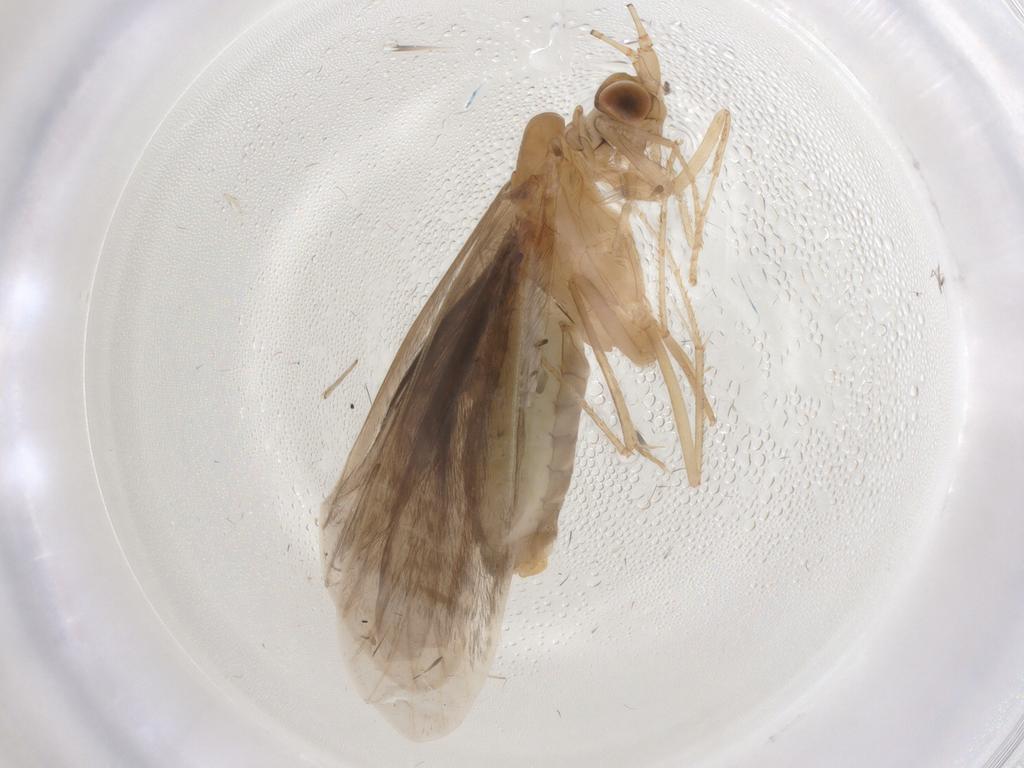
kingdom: Animalia
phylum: Arthropoda
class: Insecta
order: Trichoptera
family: Leptoceridae
